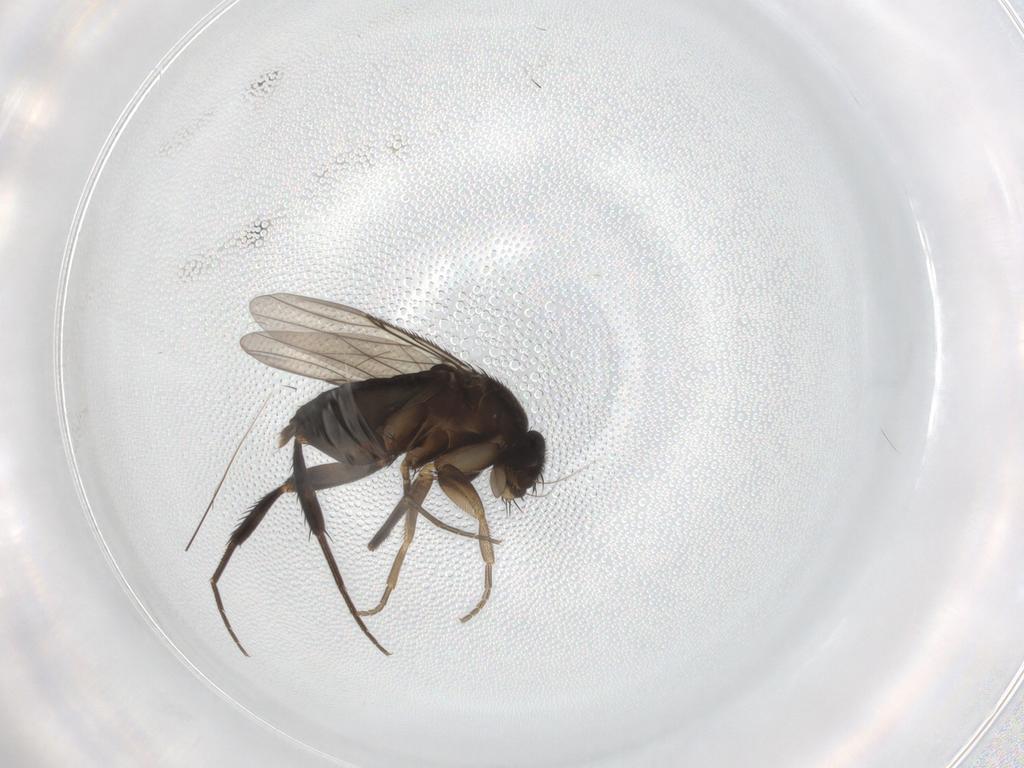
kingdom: Animalia
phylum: Arthropoda
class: Insecta
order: Diptera
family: Phoridae
